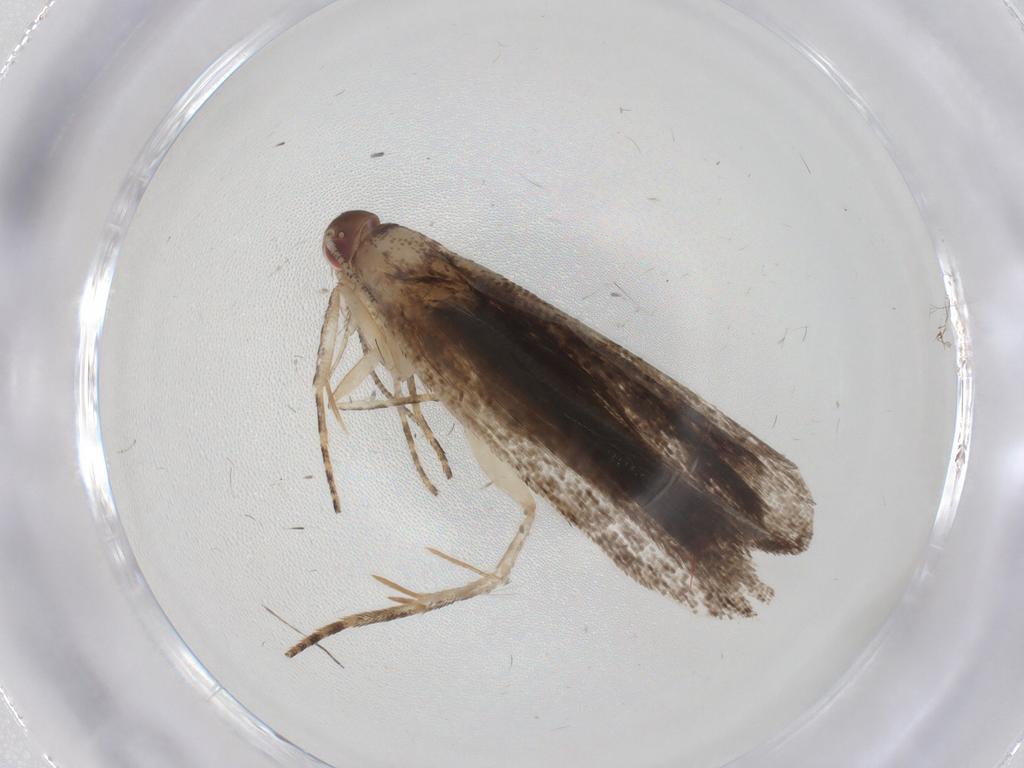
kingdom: Animalia
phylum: Arthropoda
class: Insecta
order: Lepidoptera
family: Gelechiidae
